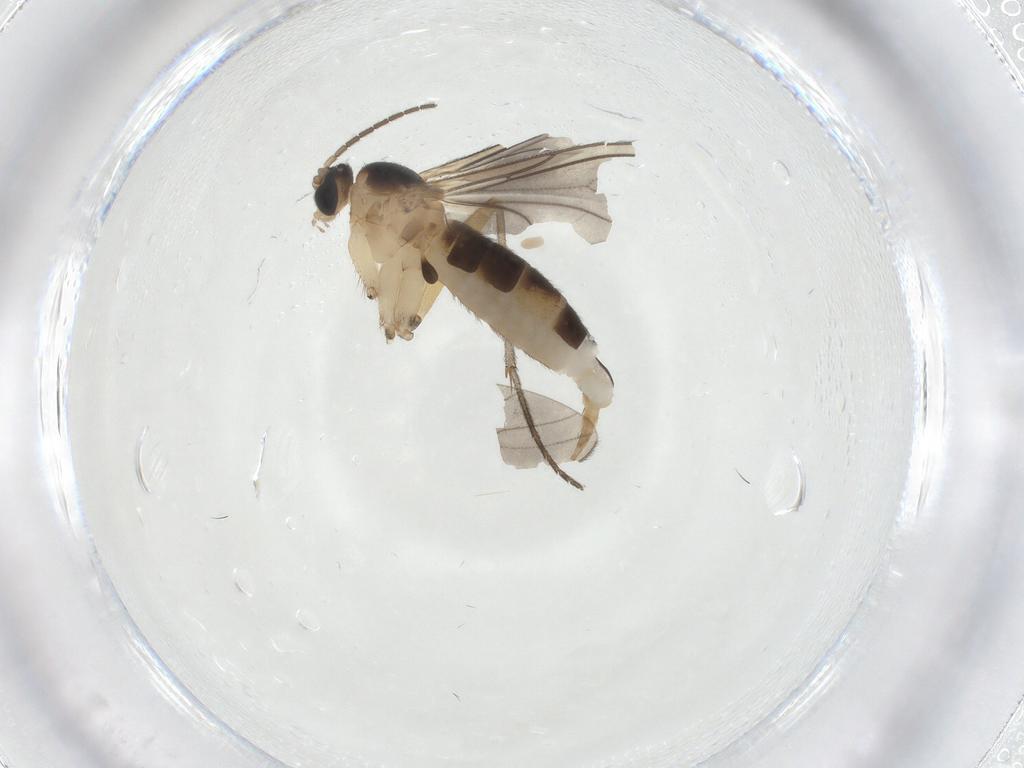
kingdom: Animalia
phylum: Arthropoda
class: Insecta
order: Diptera
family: Sciaridae
